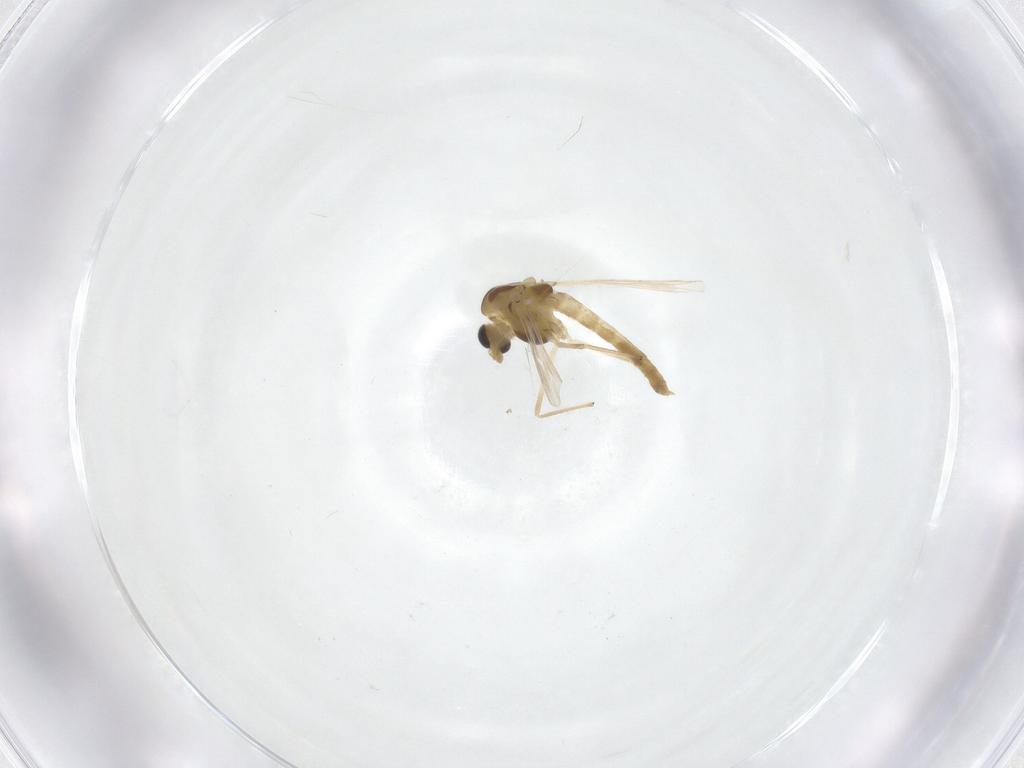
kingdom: Animalia
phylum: Arthropoda
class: Insecta
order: Diptera
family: Chironomidae
